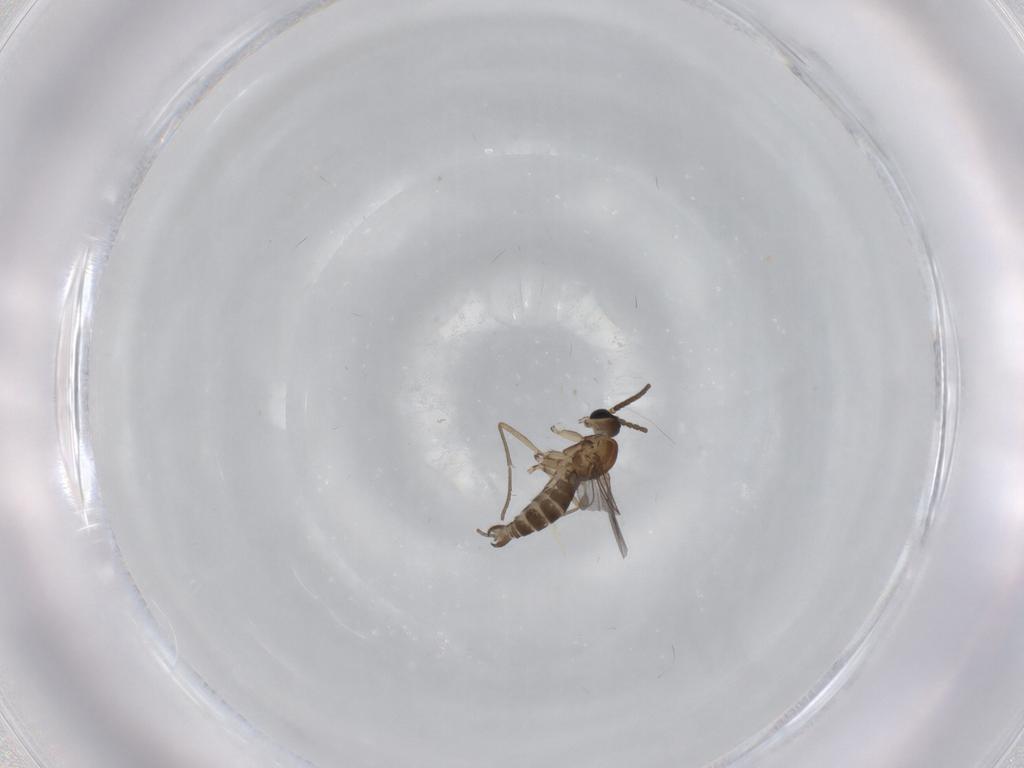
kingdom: Animalia
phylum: Arthropoda
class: Insecta
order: Diptera
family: Sciaridae
